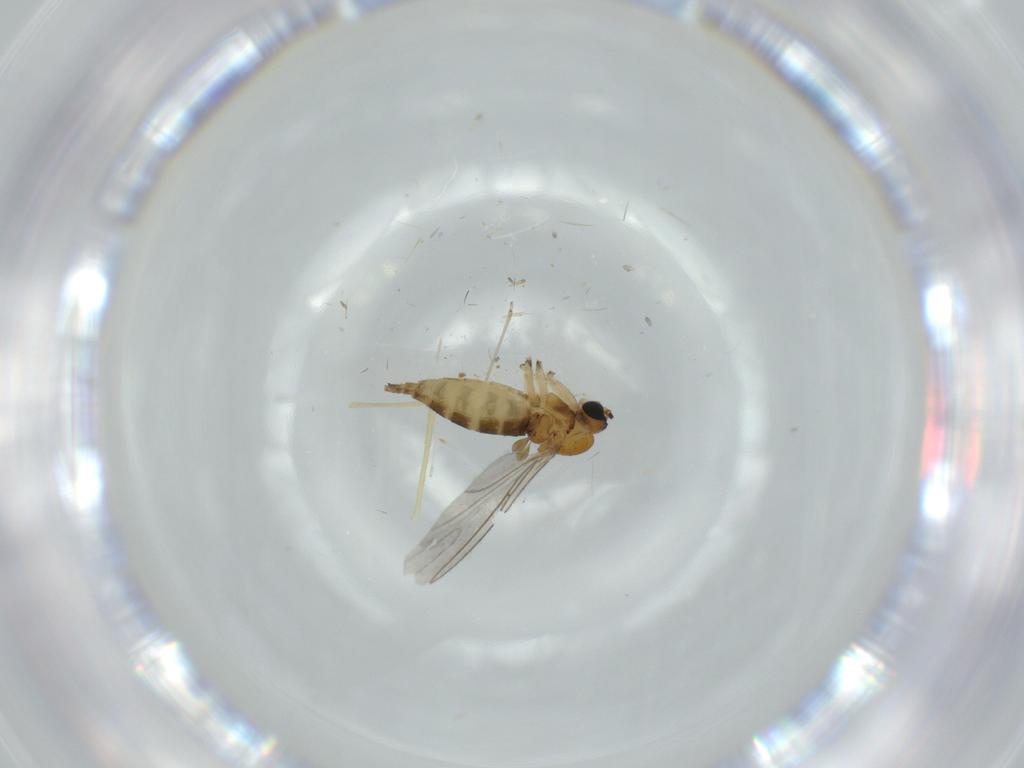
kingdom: Animalia
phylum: Arthropoda
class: Insecta
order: Diptera
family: Chironomidae
